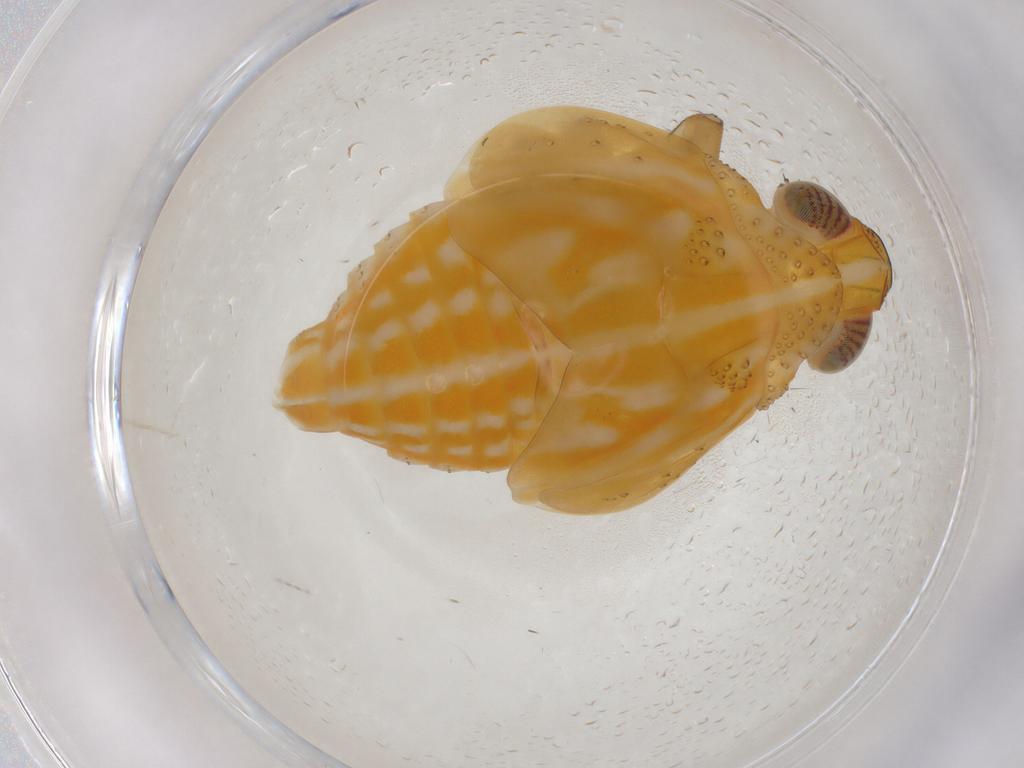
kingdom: Animalia
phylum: Arthropoda
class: Insecta
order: Hemiptera
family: Issidae
